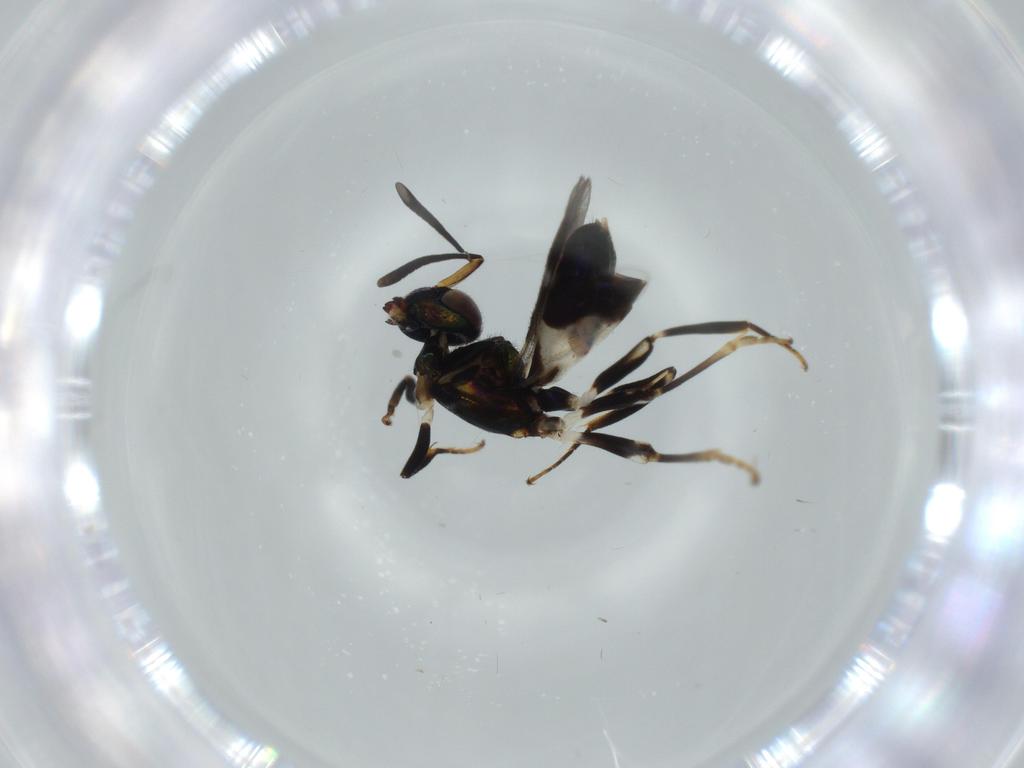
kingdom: Animalia
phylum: Arthropoda
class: Insecta
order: Hymenoptera
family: Eupelmidae
